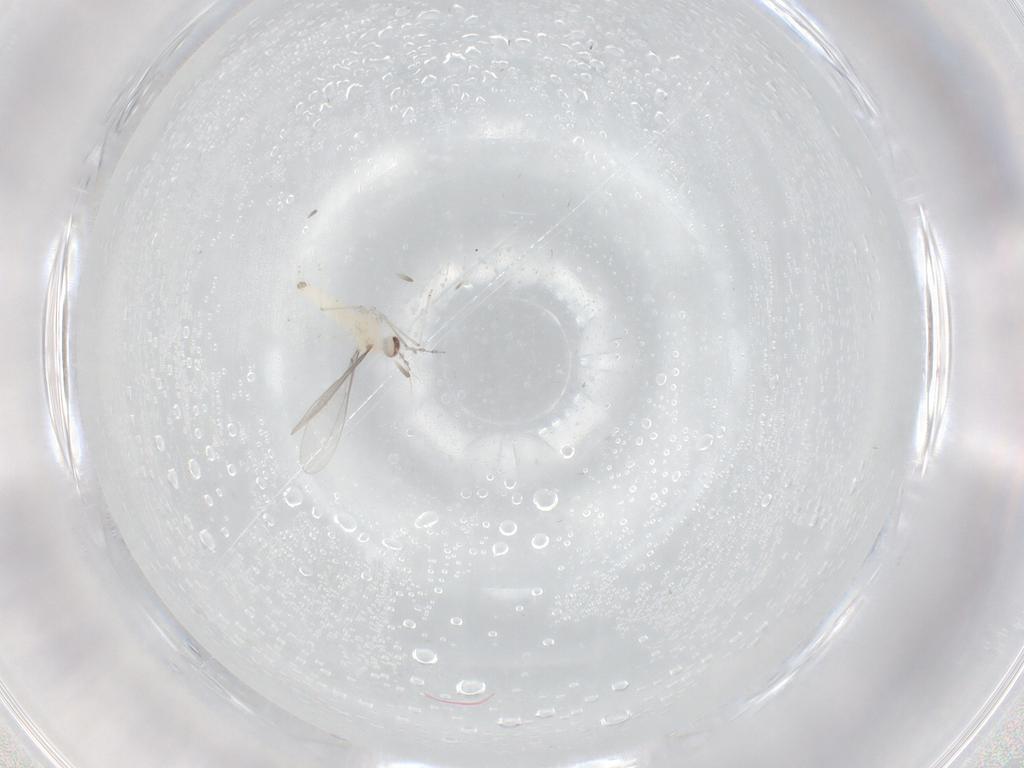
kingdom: Animalia
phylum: Arthropoda
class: Insecta
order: Diptera
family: Cecidomyiidae
